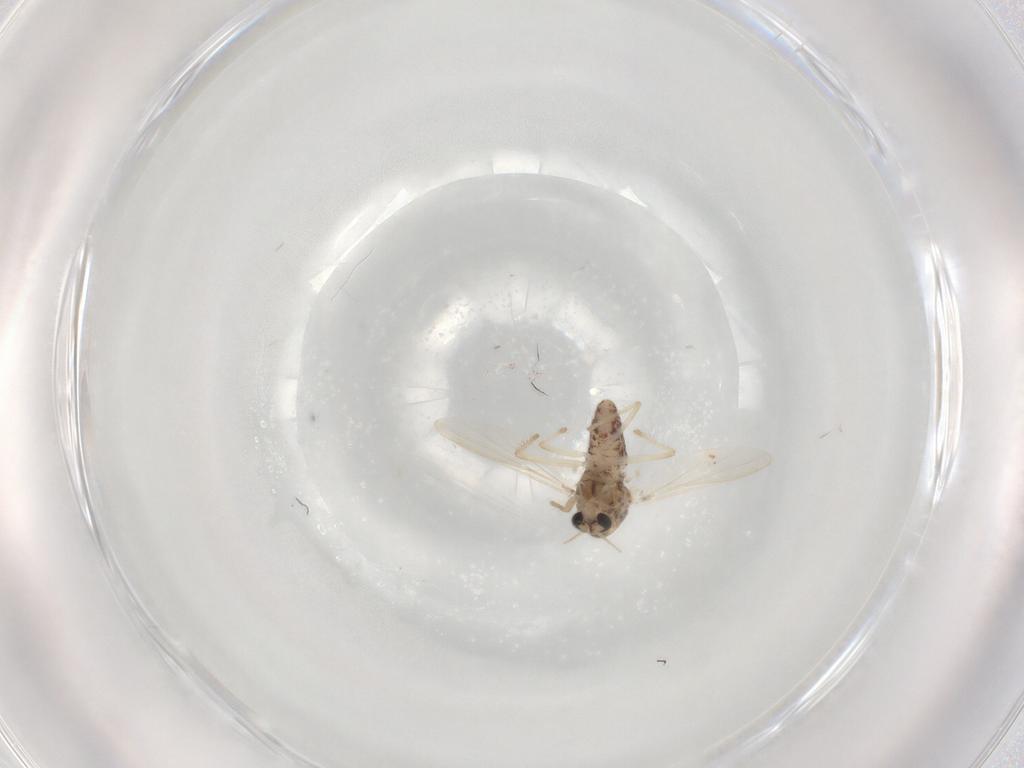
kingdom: Animalia
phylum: Arthropoda
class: Insecta
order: Diptera
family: Chironomidae
